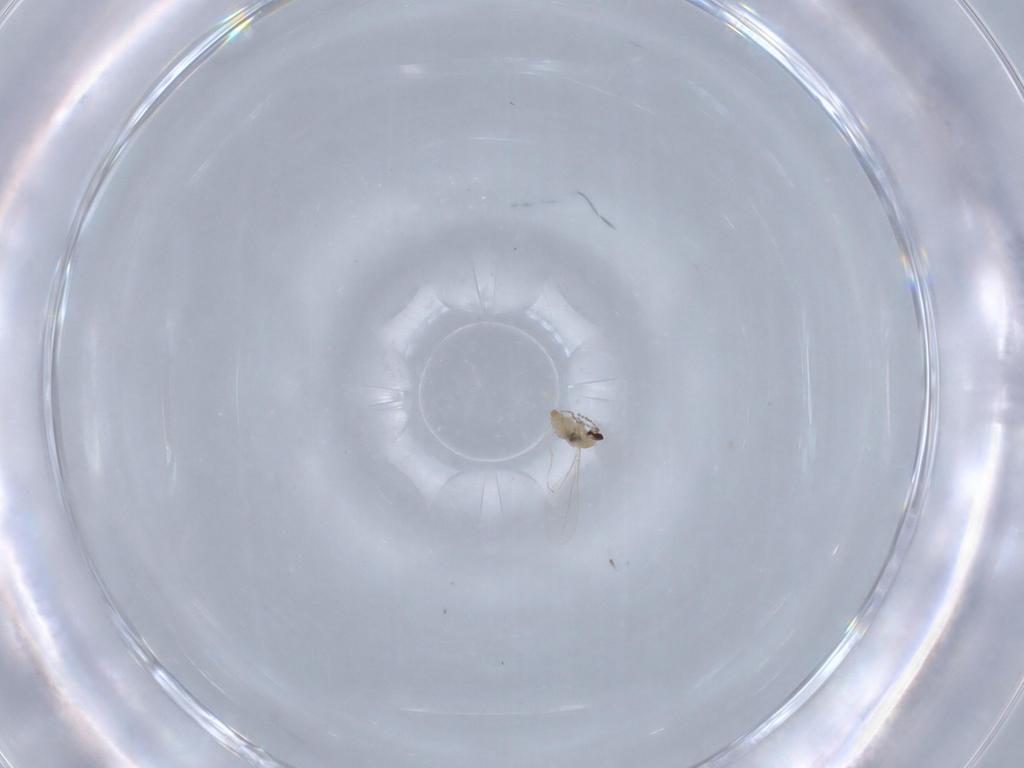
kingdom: Animalia
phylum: Arthropoda
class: Insecta
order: Diptera
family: Cecidomyiidae
